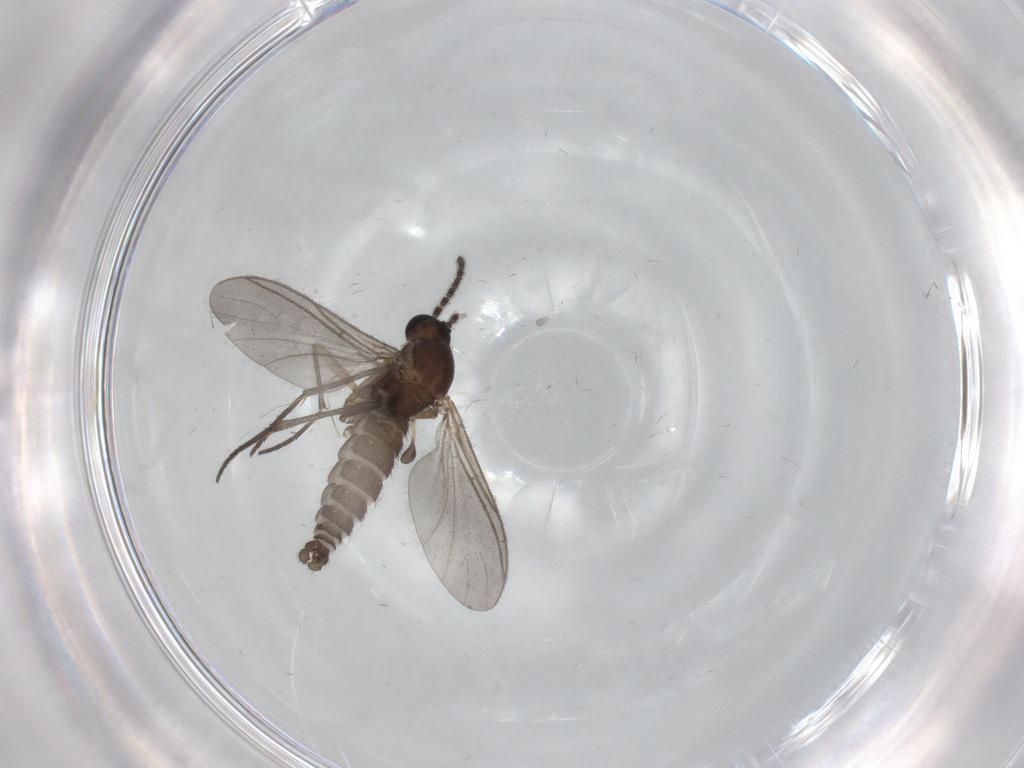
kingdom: Animalia
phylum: Arthropoda
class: Insecta
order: Diptera
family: Sciaridae
